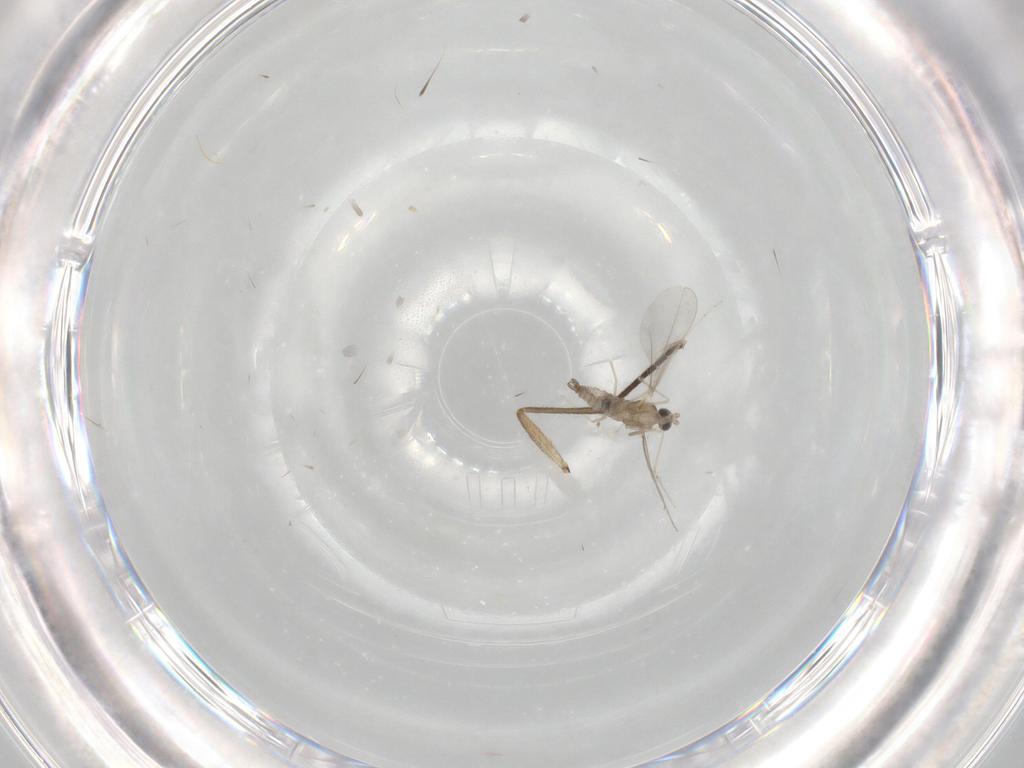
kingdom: Animalia
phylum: Arthropoda
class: Insecta
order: Diptera
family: Cecidomyiidae
